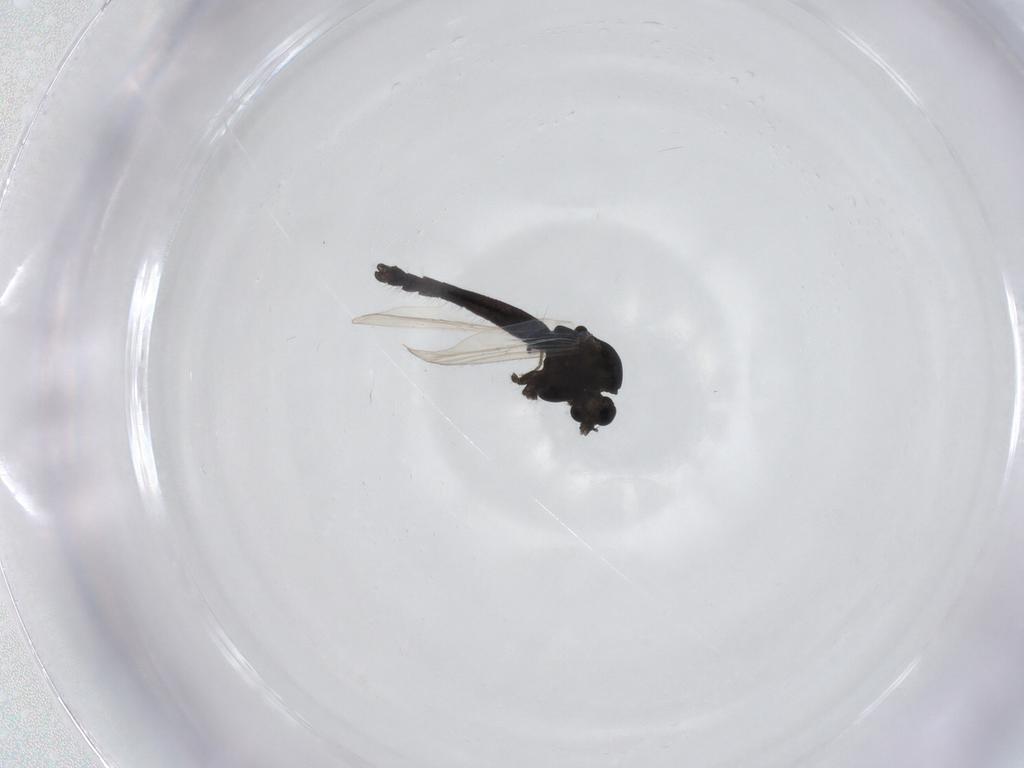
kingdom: Animalia
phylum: Arthropoda
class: Insecta
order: Diptera
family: Chironomidae
